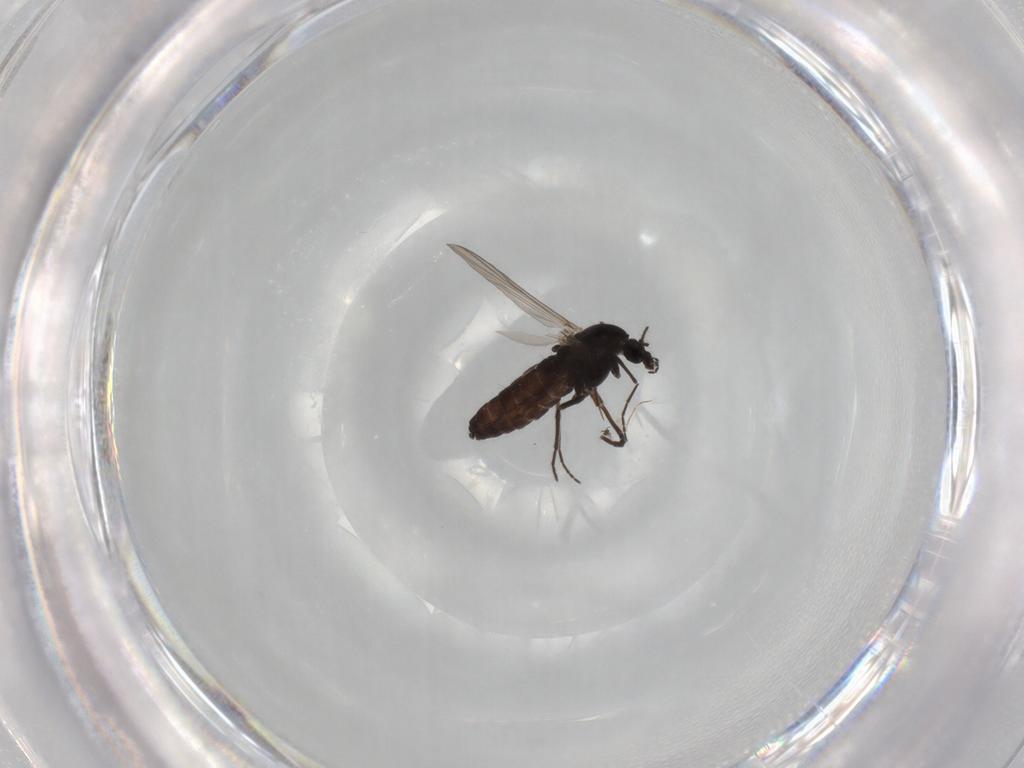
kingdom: Animalia
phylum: Arthropoda
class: Insecta
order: Diptera
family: Chironomidae
